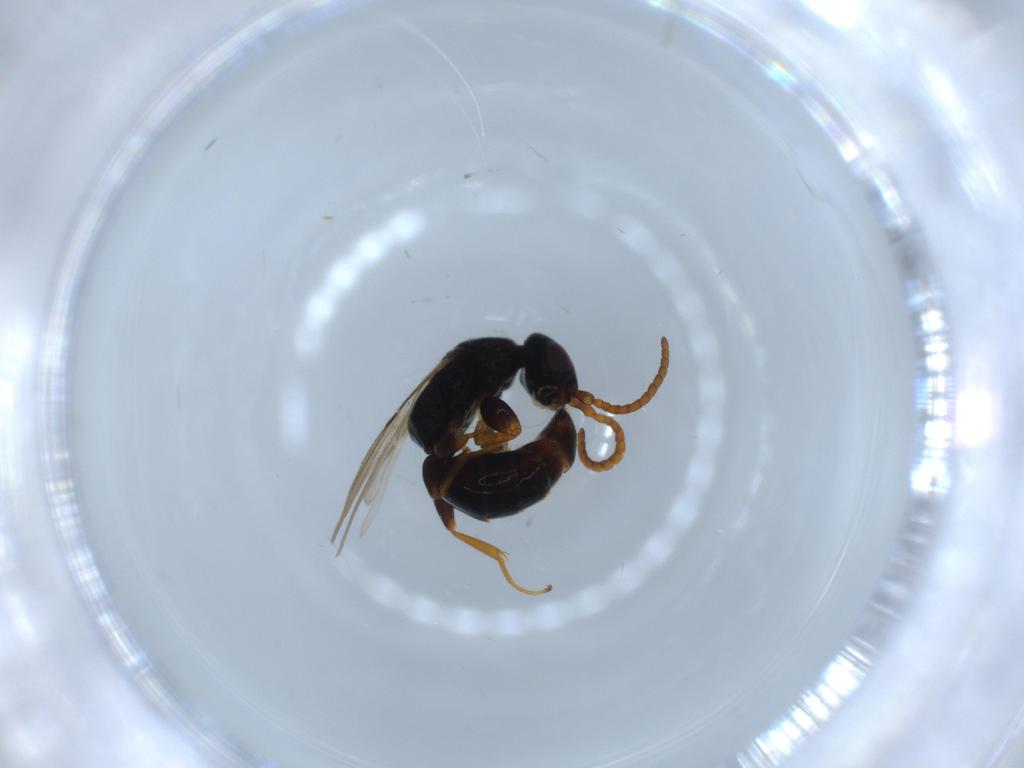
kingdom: Animalia
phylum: Arthropoda
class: Insecta
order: Hymenoptera
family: Bethylidae
